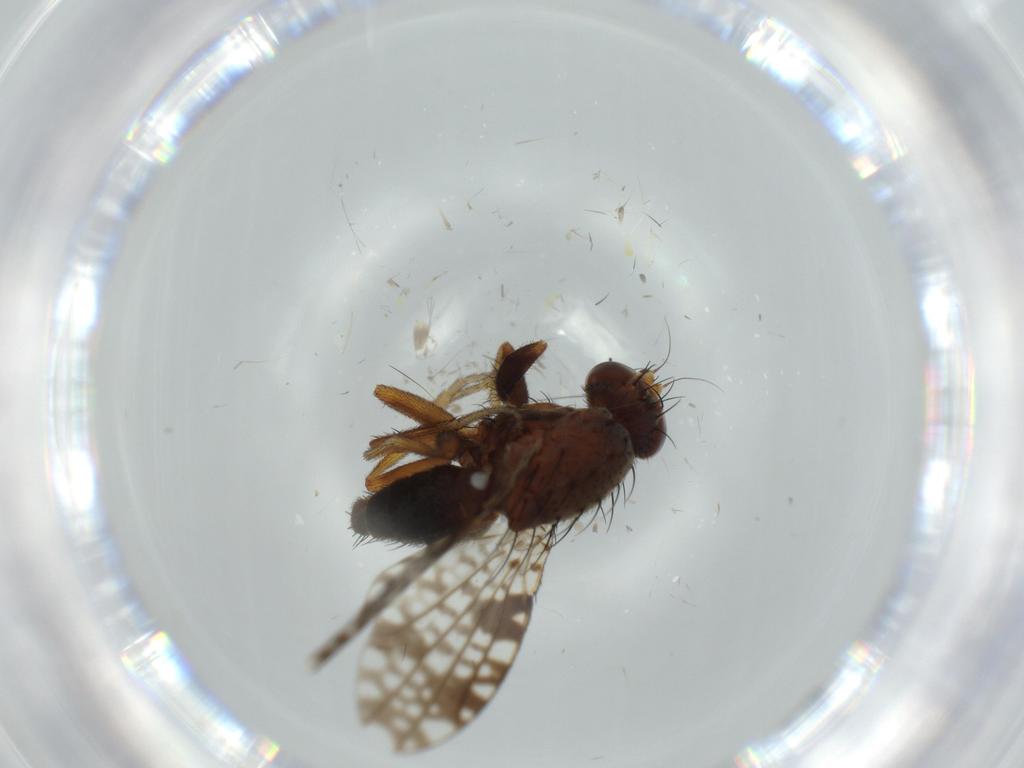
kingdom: Animalia
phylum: Arthropoda
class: Insecta
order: Diptera
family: Tephritidae
